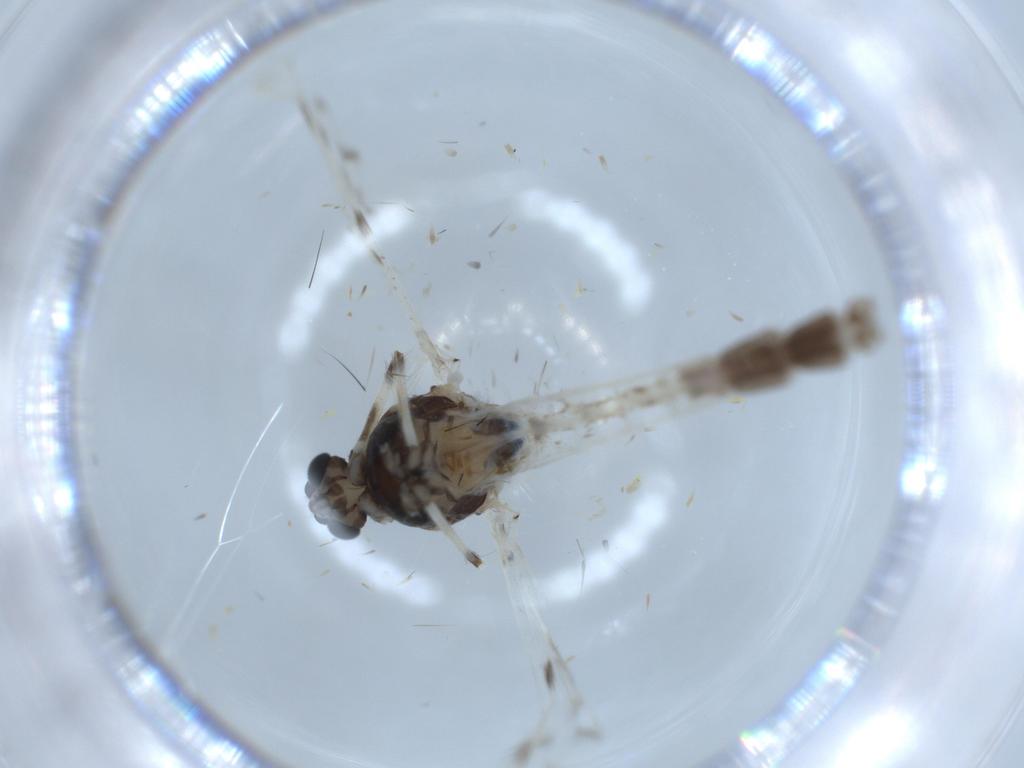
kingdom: Animalia
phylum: Arthropoda
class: Insecta
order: Diptera
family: Chironomidae
